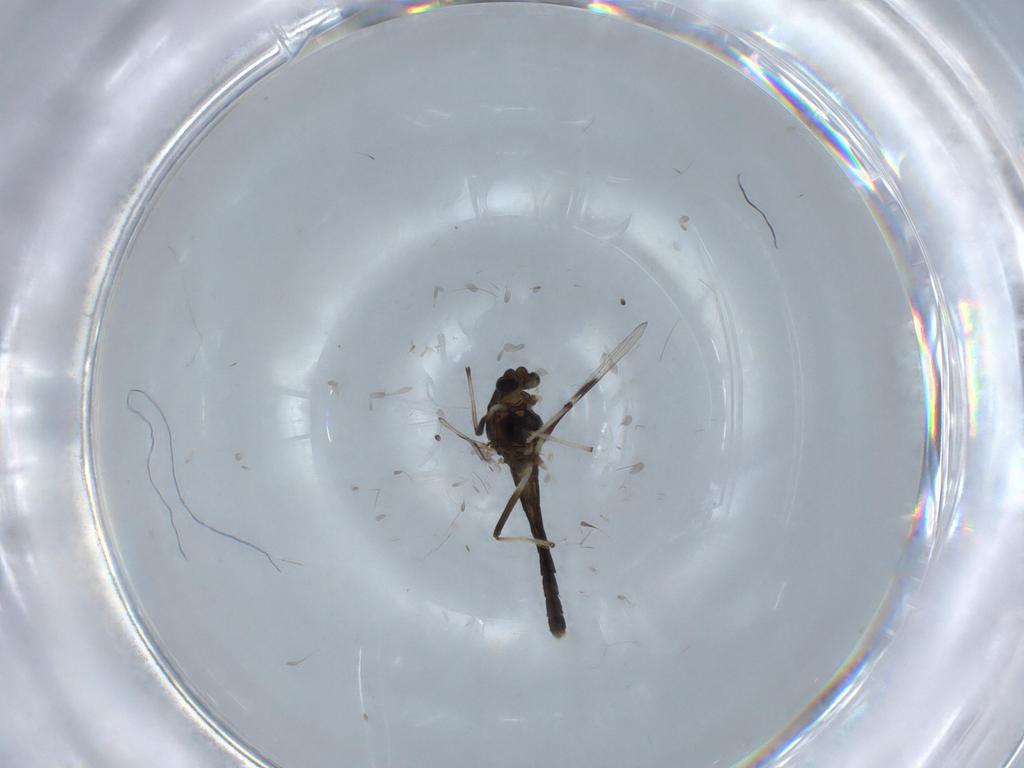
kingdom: Animalia
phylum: Arthropoda
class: Insecta
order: Diptera
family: Chironomidae
